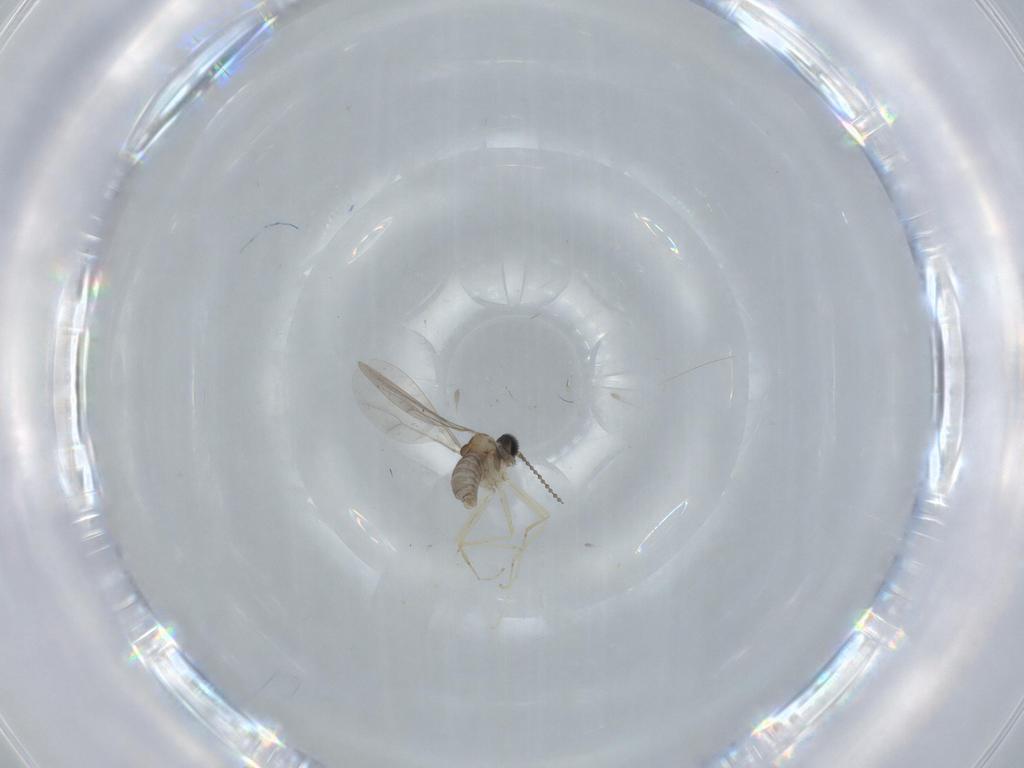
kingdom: Animalia
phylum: Arthropoda
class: Insecta
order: Diptera
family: Cecidomyiidae
